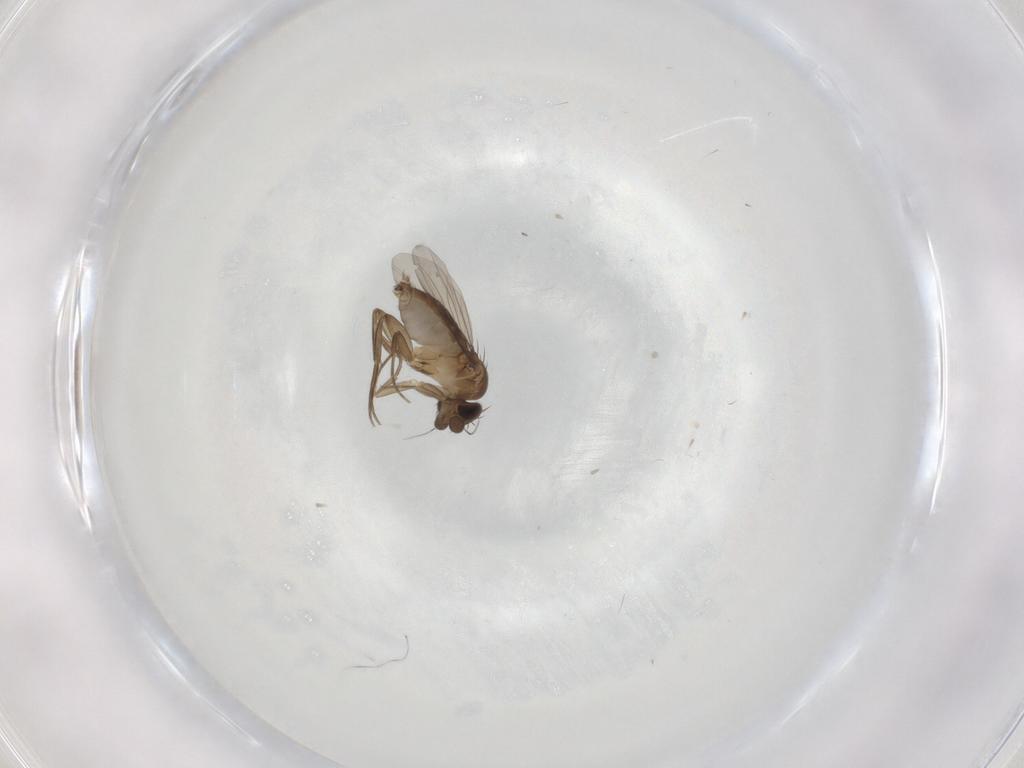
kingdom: Animalia
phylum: Arthropoda
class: Insecta
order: Diptera
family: Phoridae
